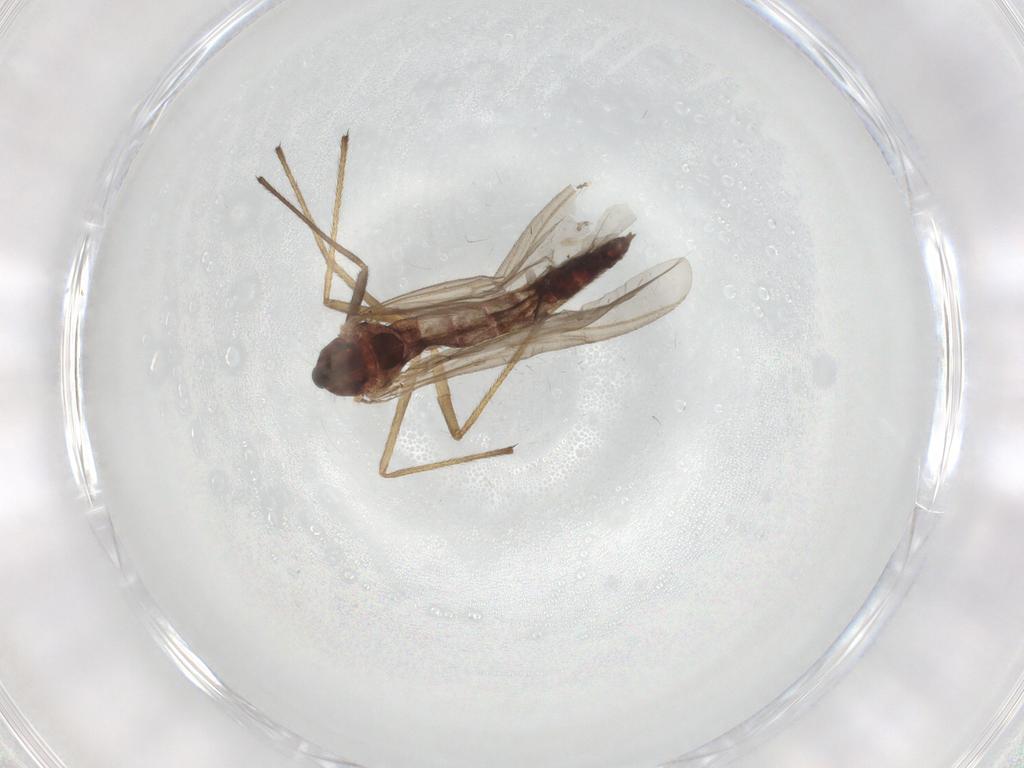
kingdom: Animalia
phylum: Arthropoda
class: Insecta
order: Diptera
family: Chironomidae
